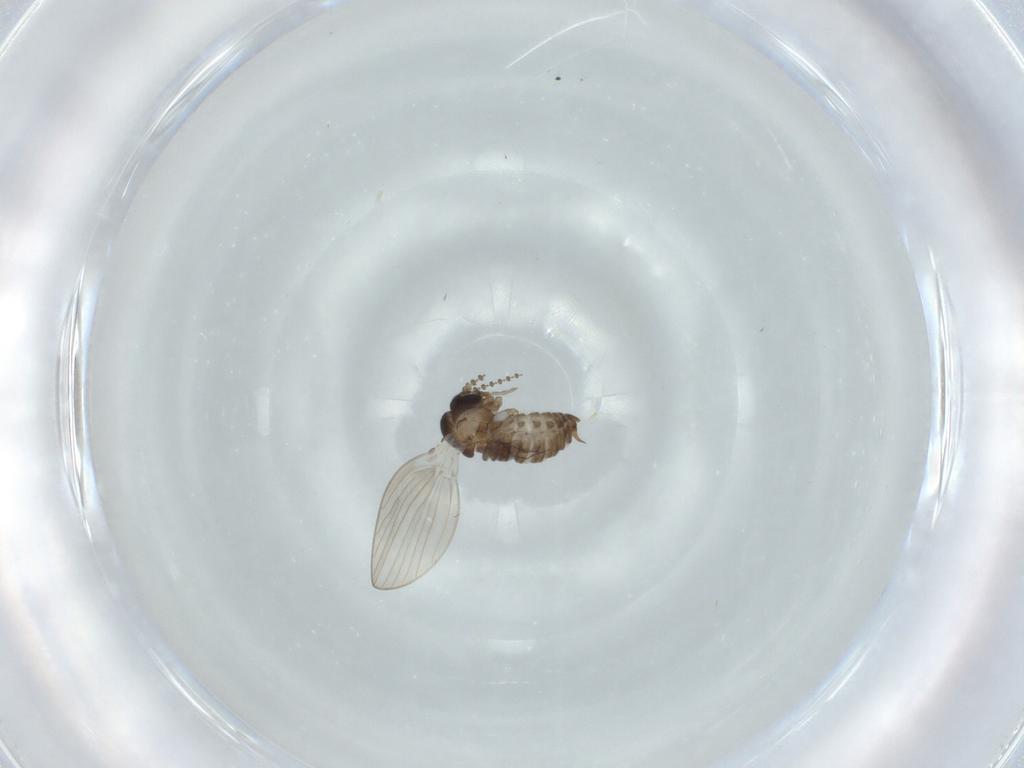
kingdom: Animalia
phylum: Arthropoda
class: Insecta
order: Diptera
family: Psychodidae
